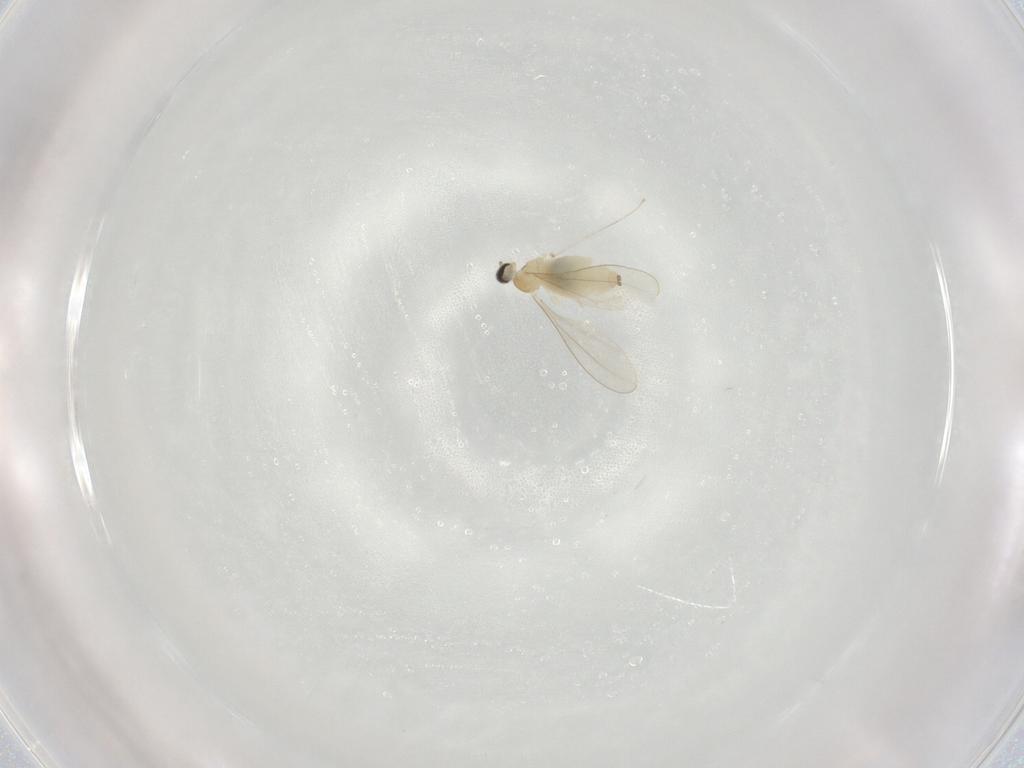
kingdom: Animalia
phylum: Arthropoda
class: Insecta
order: Diptera
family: Cecidomyiidae
